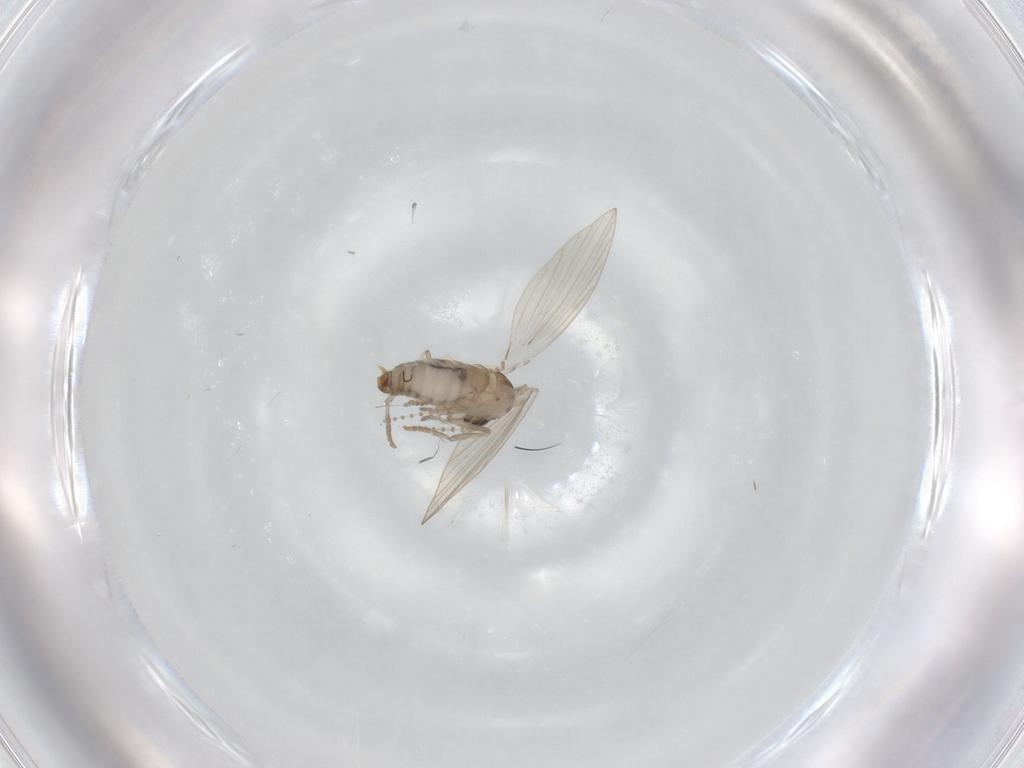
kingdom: Animalia
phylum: Arthropoda
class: Insecta
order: Diptera
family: Psychodidae
